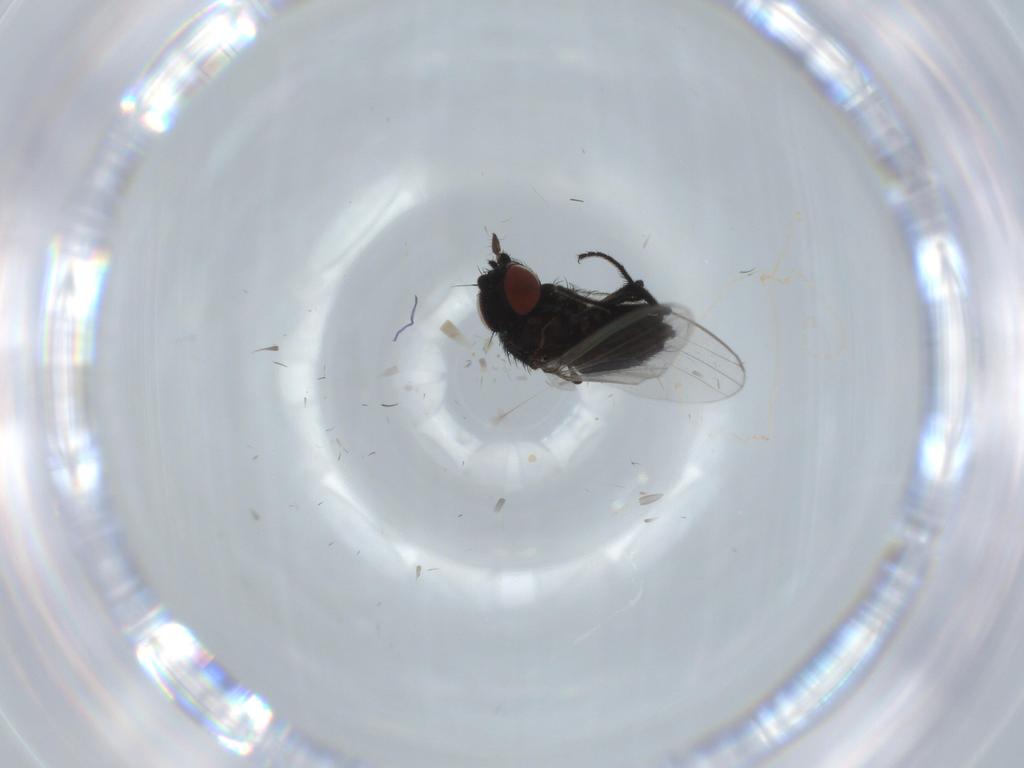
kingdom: Animalia
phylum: Arthropoda
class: Insecta
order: Diptera
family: Milichiidae
